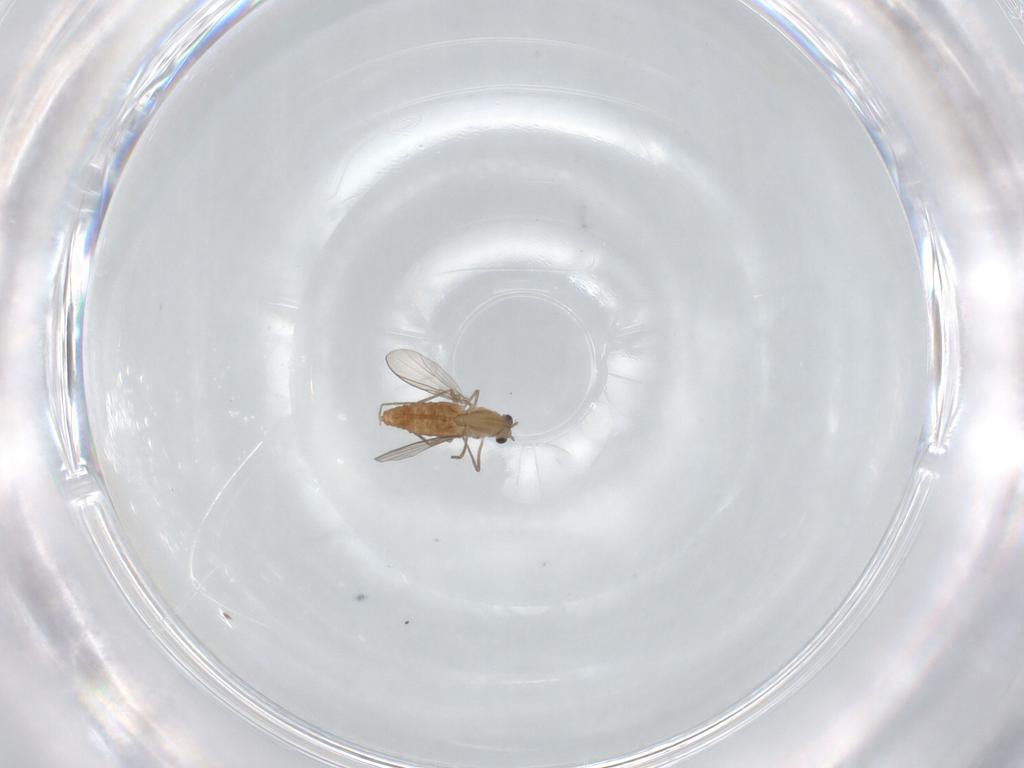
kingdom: Animalia
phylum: Arthropoda
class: Insecta
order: Diptera
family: Chironomidae
